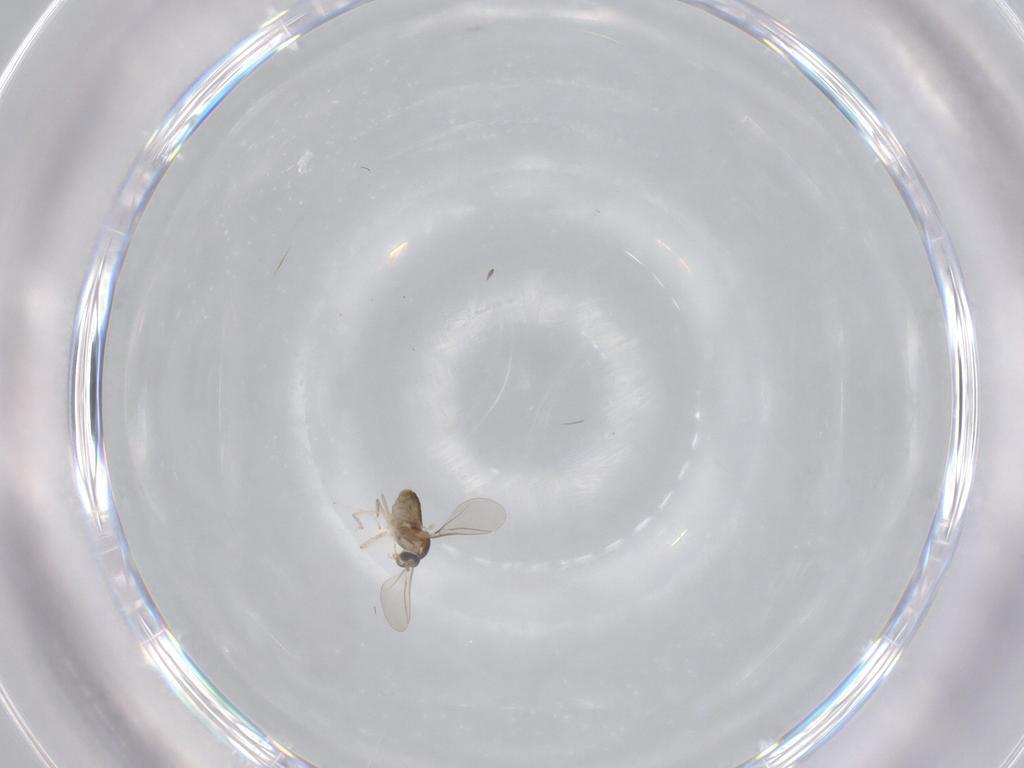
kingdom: Animalia
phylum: Arthropoda
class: Insecta
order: Diptera
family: Cecidomyiidae
